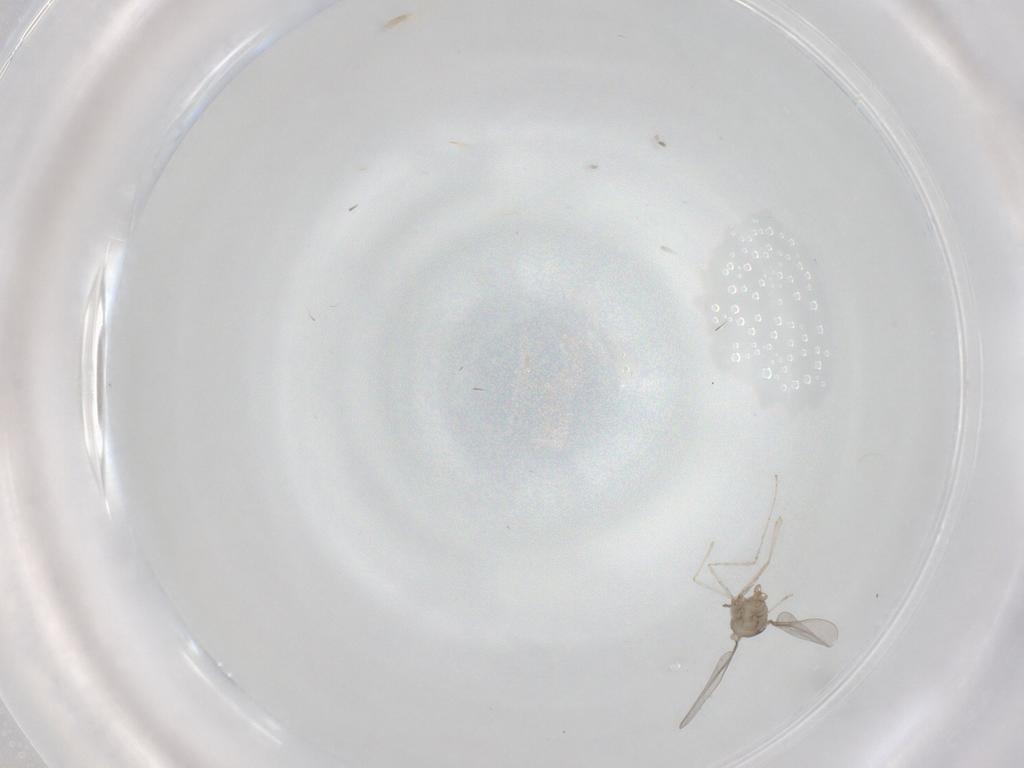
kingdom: Animalia
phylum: Arthropoda
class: Insecta
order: Diptera
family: Cecidomyiidae
